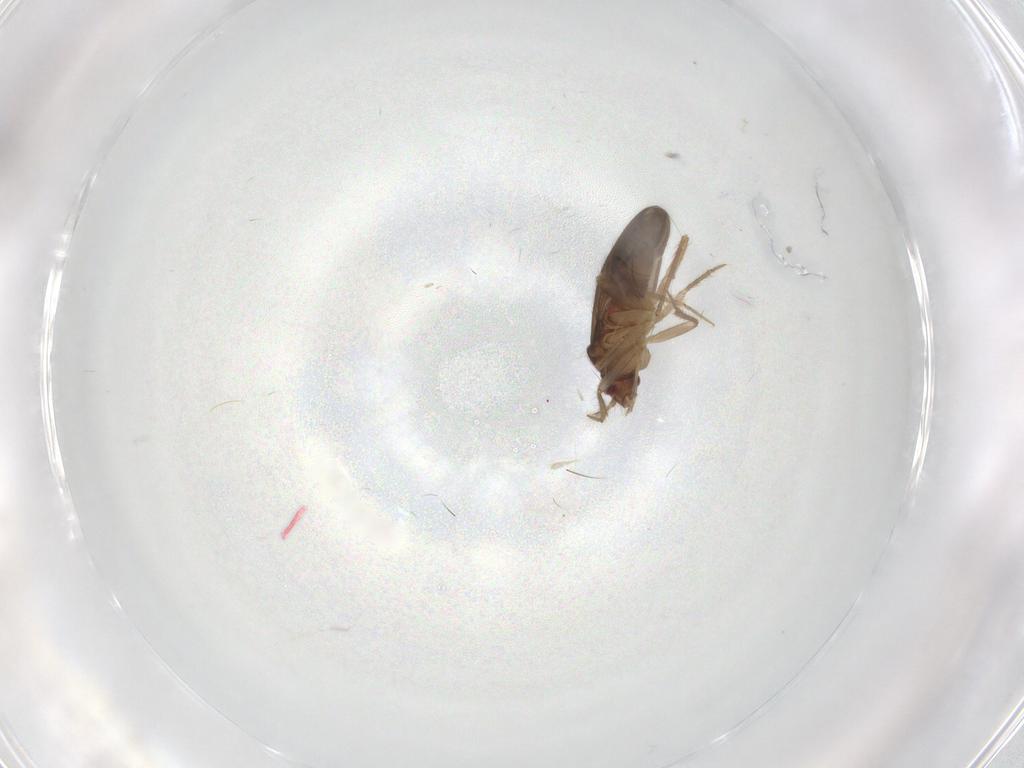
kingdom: Animalia
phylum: Arthropoda
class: Insecta
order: Hemiptera
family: Ceratocombidae
